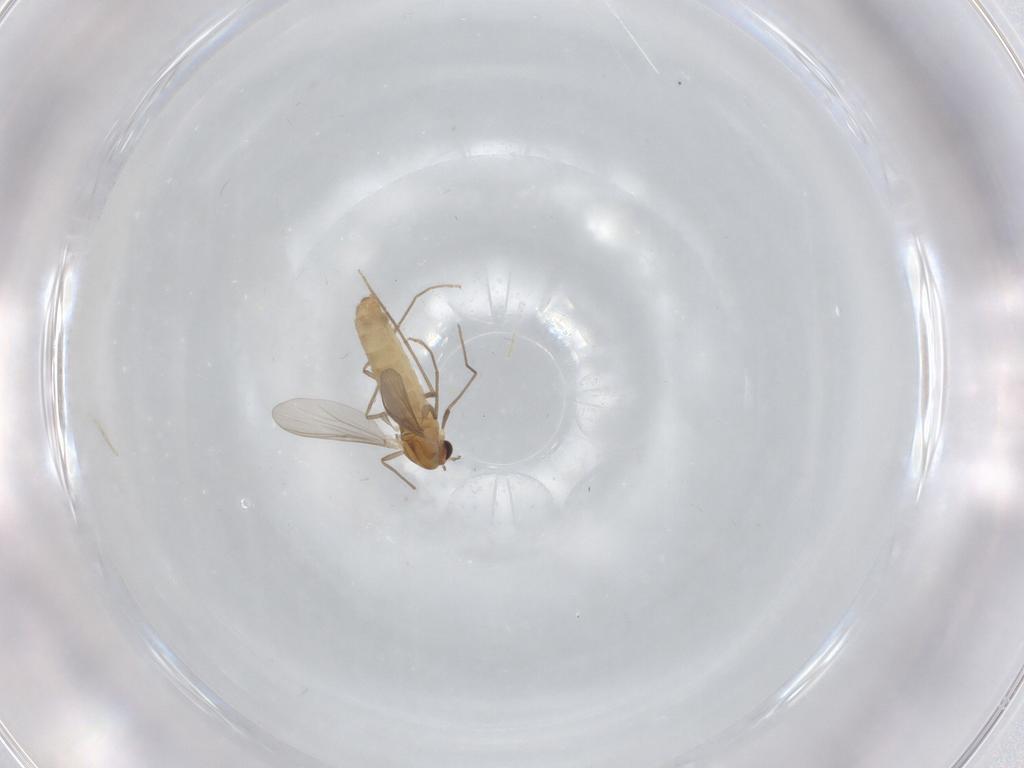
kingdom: Animalia
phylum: Arthropoda
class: Insecta
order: Diptera
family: Chironomidae
